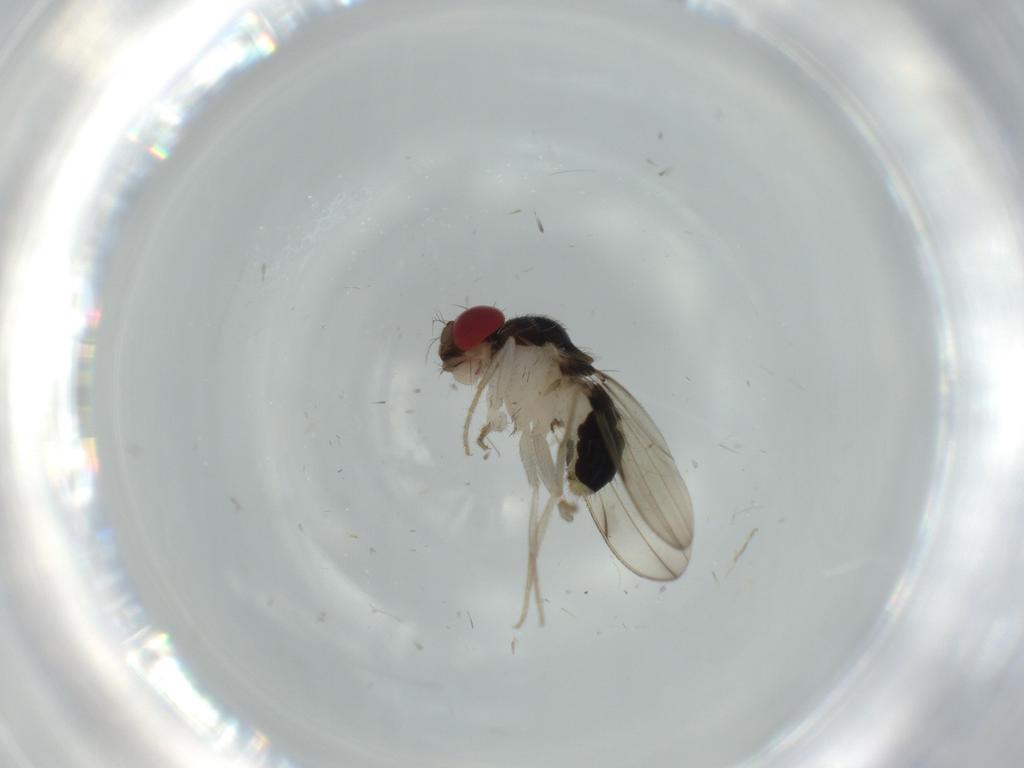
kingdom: Animalia
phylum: Arthropoda
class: Insecta
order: Diptera
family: Drosophilidae
